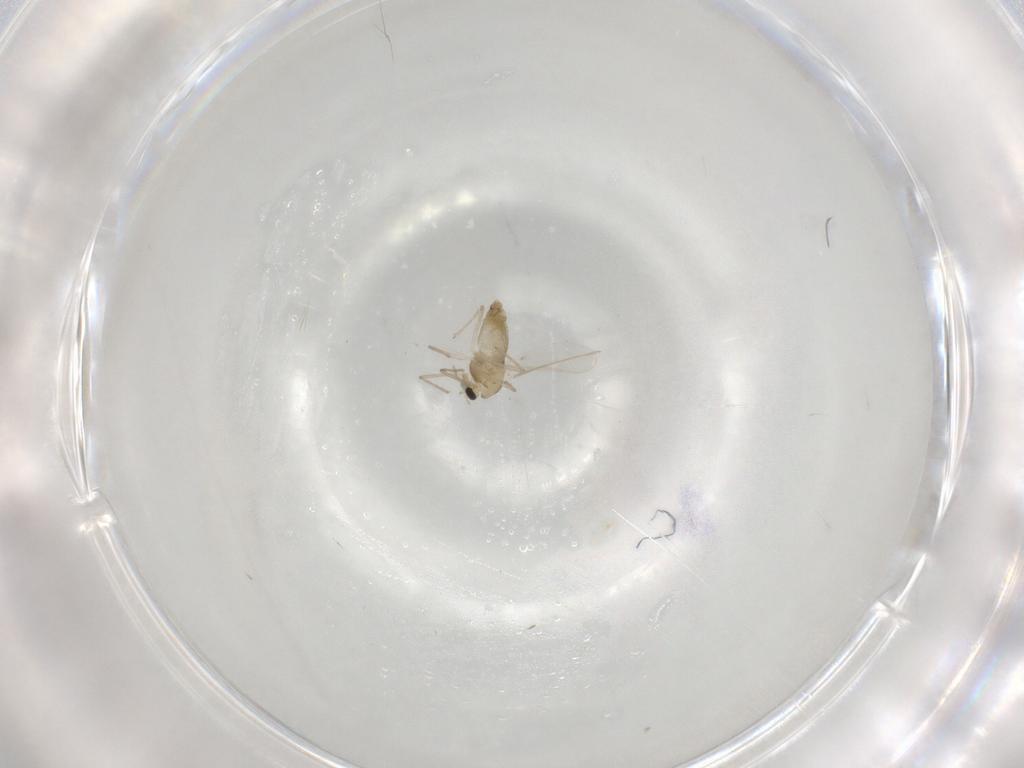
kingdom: Animalia
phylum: Arthropoda
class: Insecta
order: Diptera
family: Chironomidae
